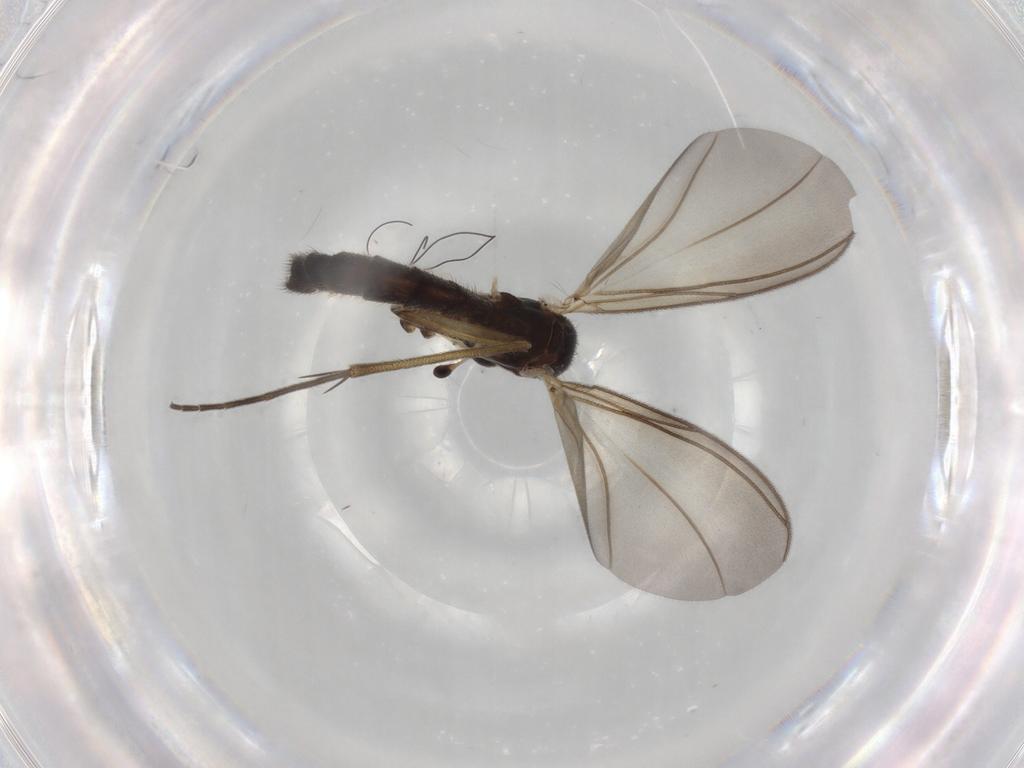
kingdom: Animalia
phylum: Arthropoda
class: Insecta
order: Diptera
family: Mycetophilidae
